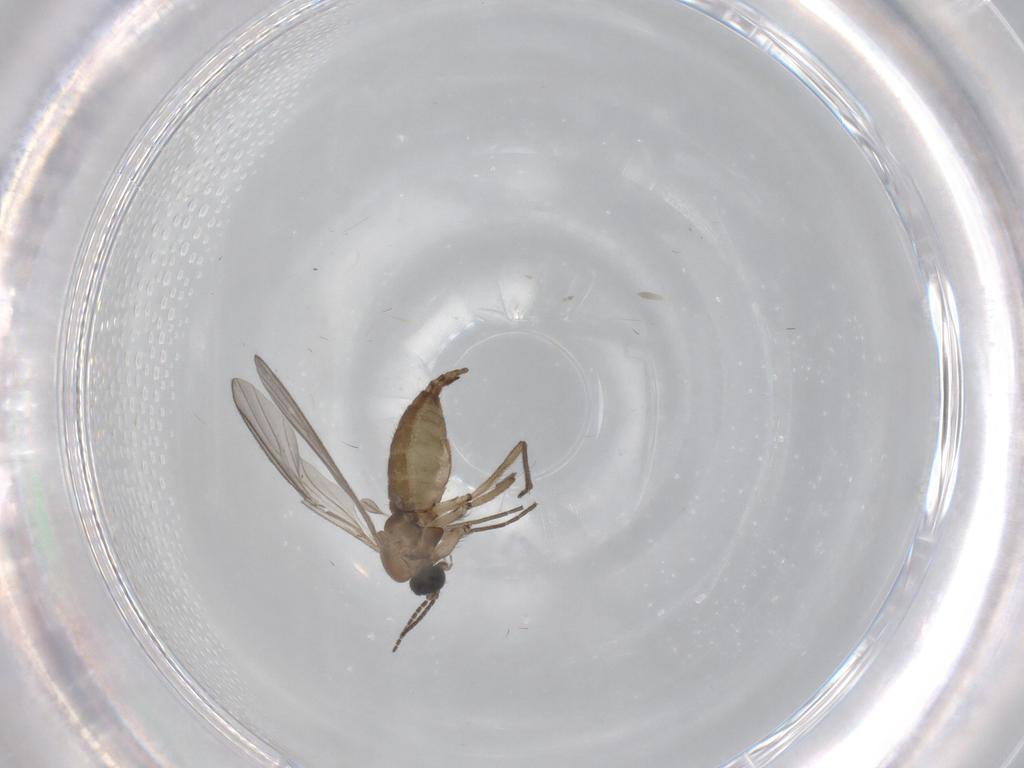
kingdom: Animalia
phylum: Arthropoda
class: Insecta
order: Diptera
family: Sciaridae
